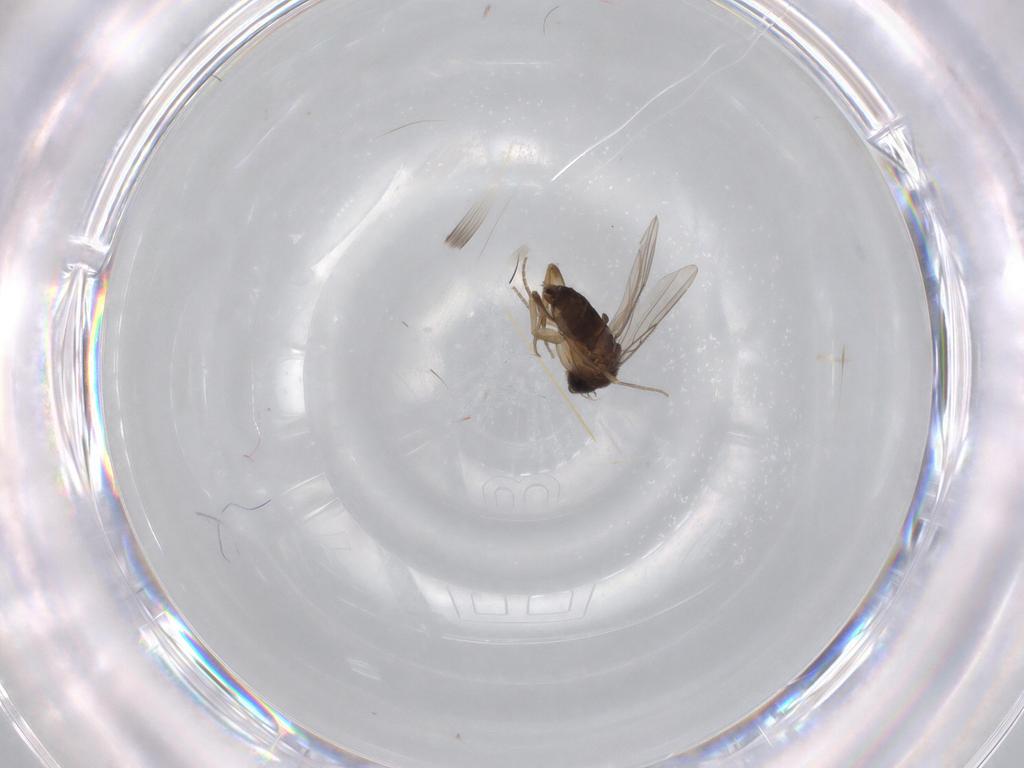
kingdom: Animalia
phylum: Arthropoda
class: Insecta
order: Diptera
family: Phoridae
